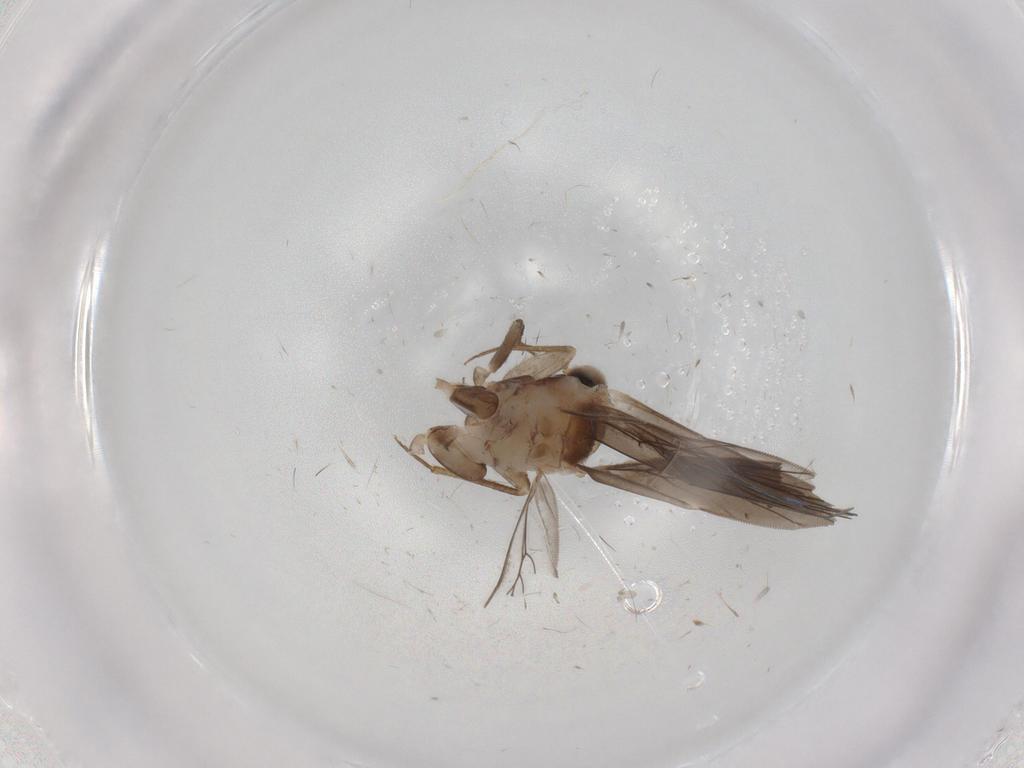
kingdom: Animalia
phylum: Arthropoda
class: Insecta
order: Psocodea
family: Lepidopsocidae
